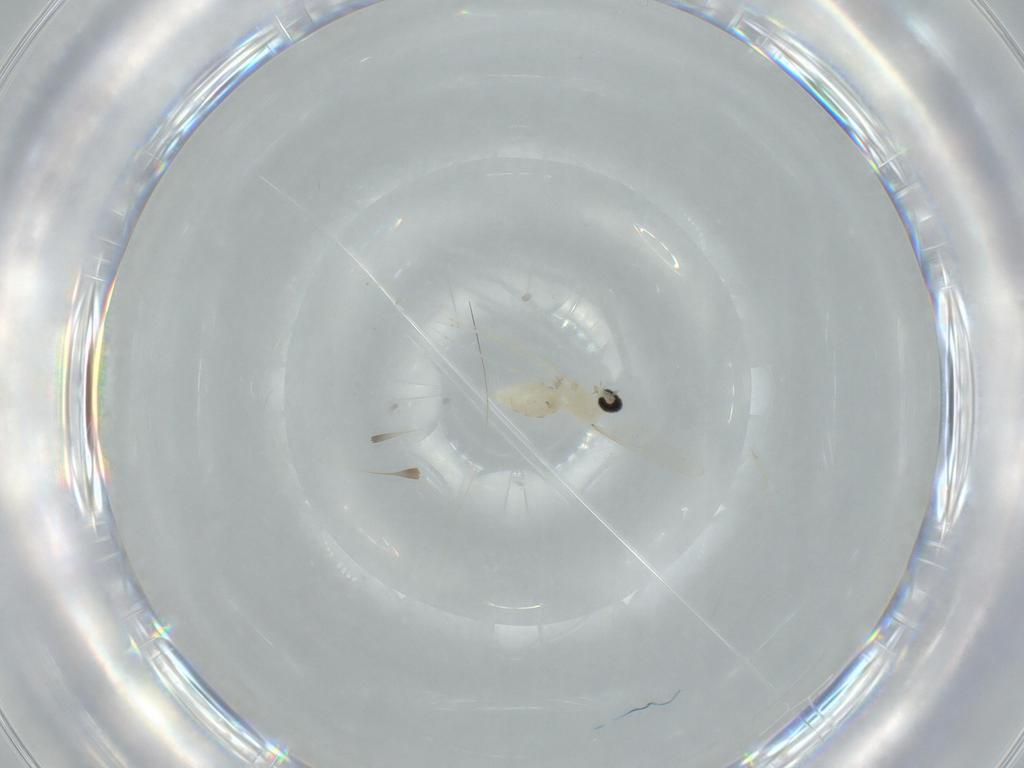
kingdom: Animalia
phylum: Arthropoda
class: Insecta
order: Diptera
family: Cecidomyiidae
